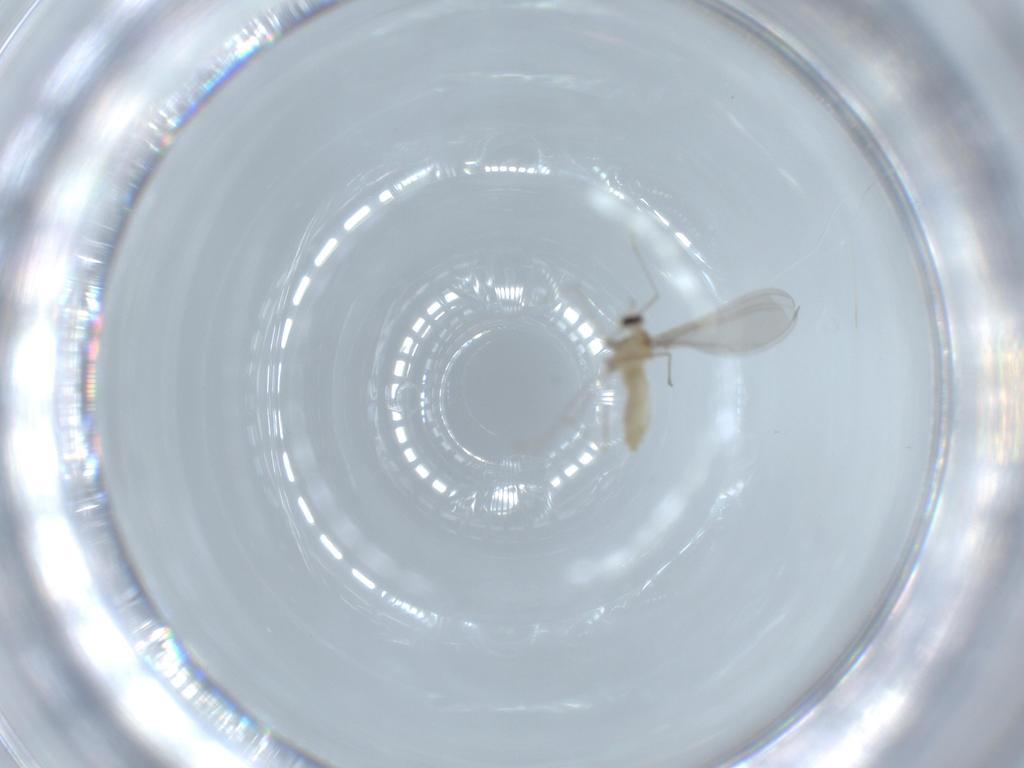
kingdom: Animalia
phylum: Arthropoda
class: Insecta
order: Diptera
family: Cecidomyiidae
